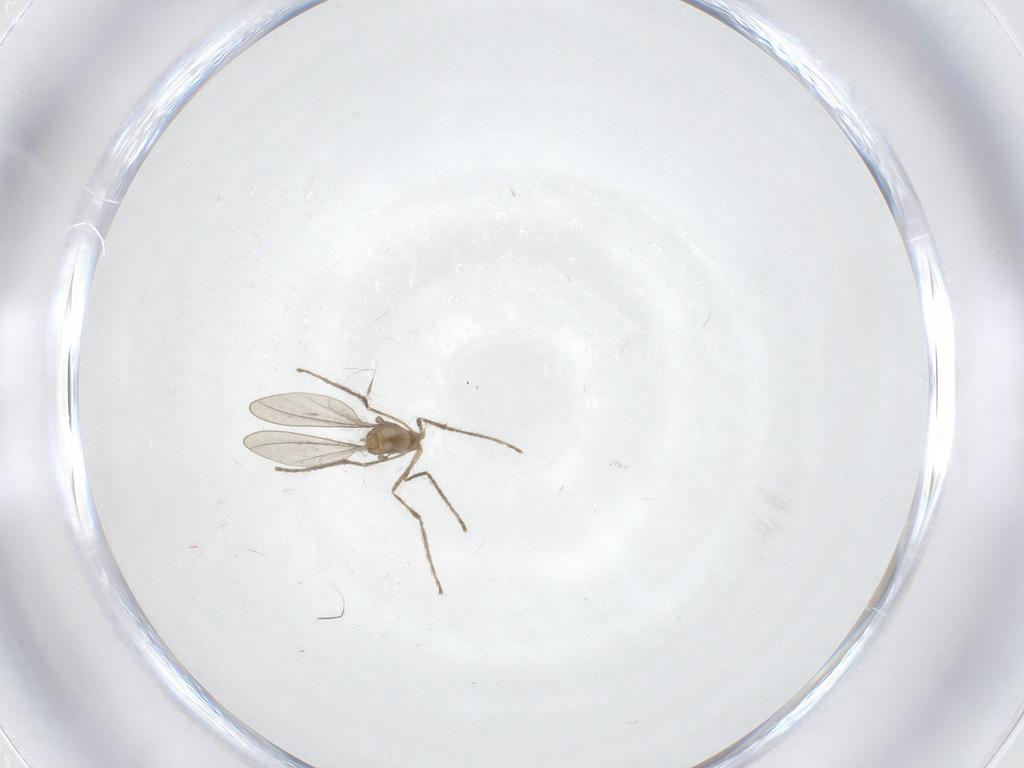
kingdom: Animalia
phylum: Arthropoda
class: Insecta
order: Diptera
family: Cecidomyiidae
